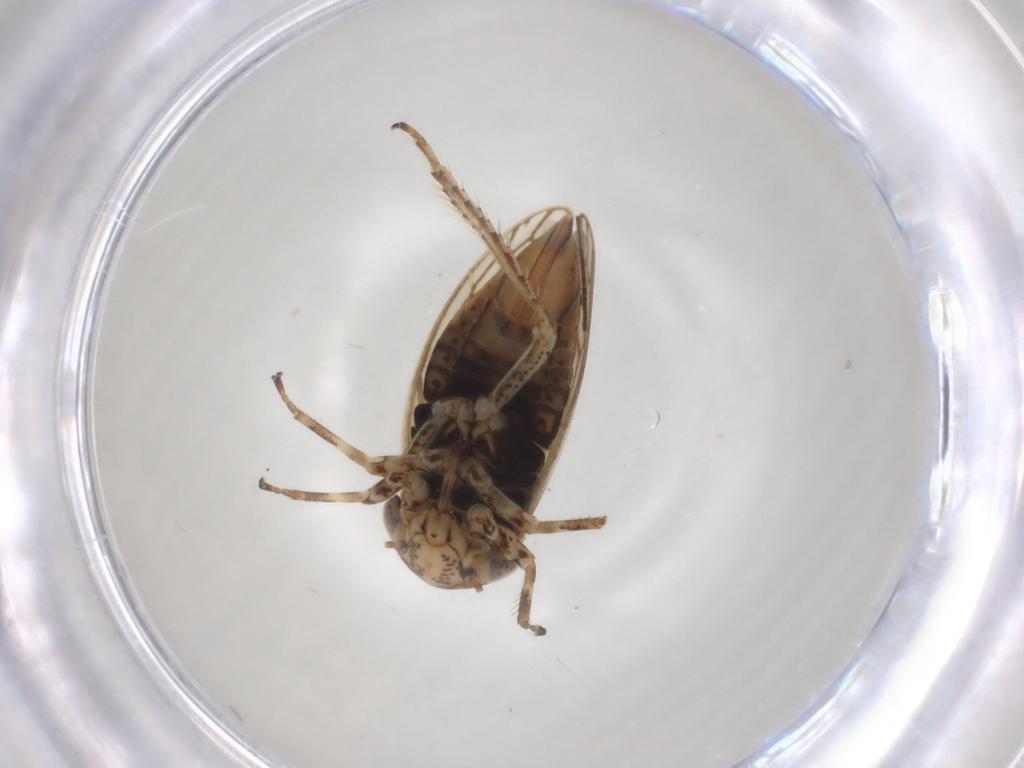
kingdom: Animalia
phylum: Arthropoda
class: Insecta
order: Hemiptera
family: Cicadellidae
